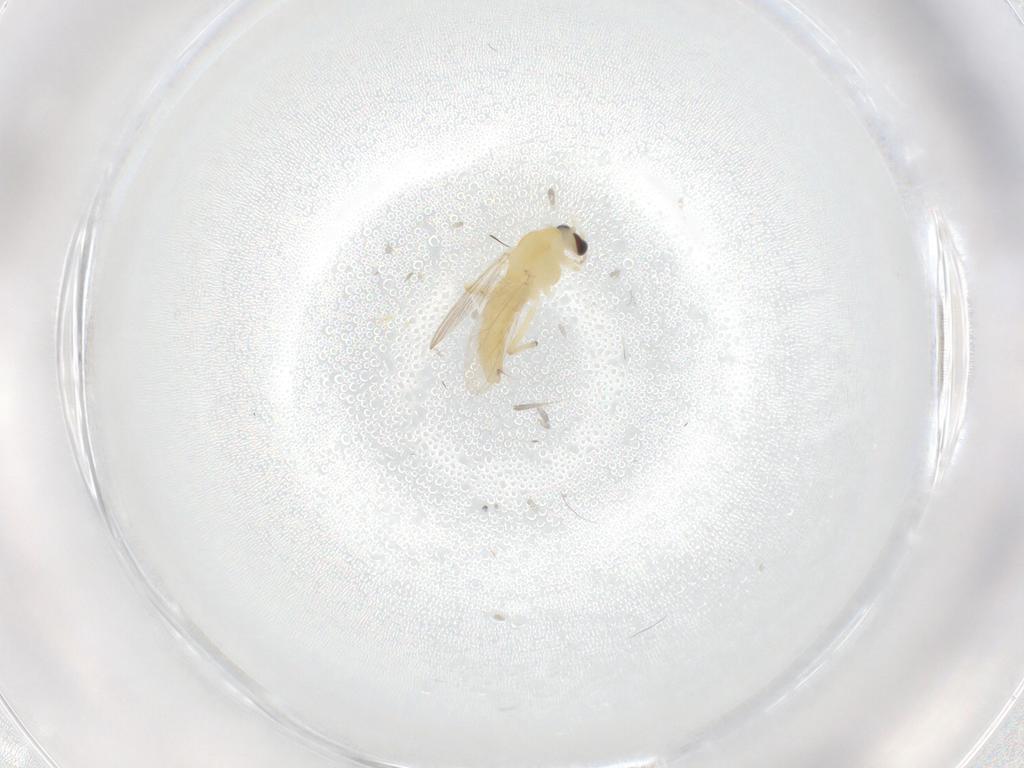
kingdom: Animalia
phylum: Arthropoda
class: Insecta
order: Diptera
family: Chironomidae
